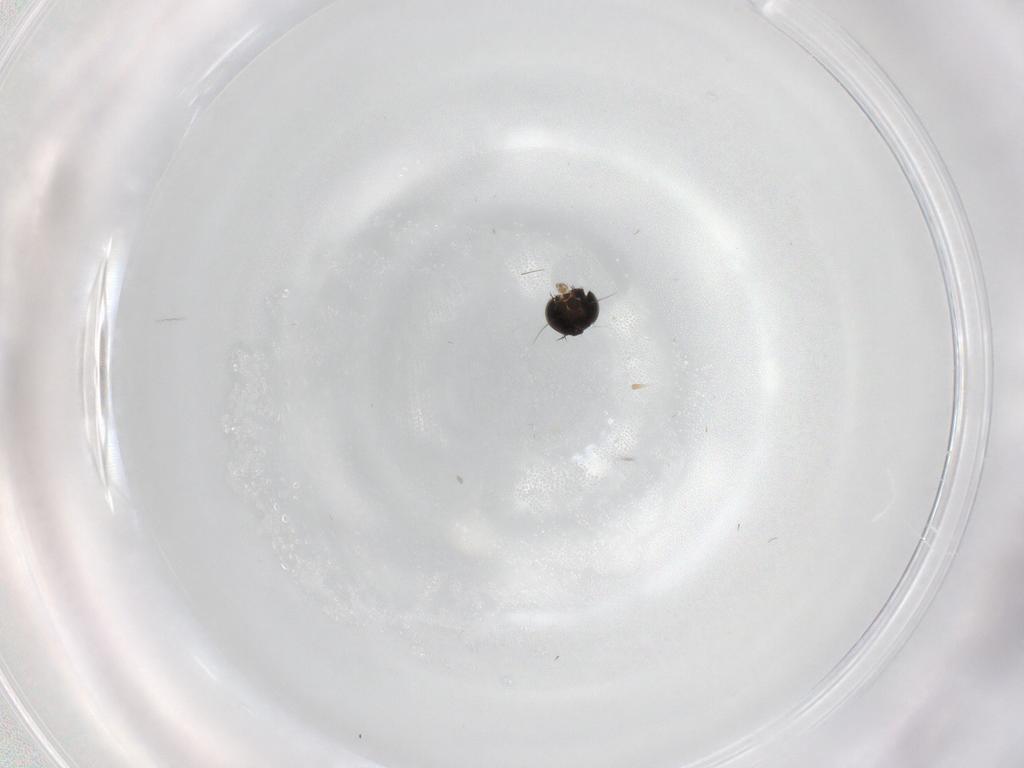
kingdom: Animalia
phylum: Arthropoda
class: Insecta
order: Diptera
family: Phoridae
